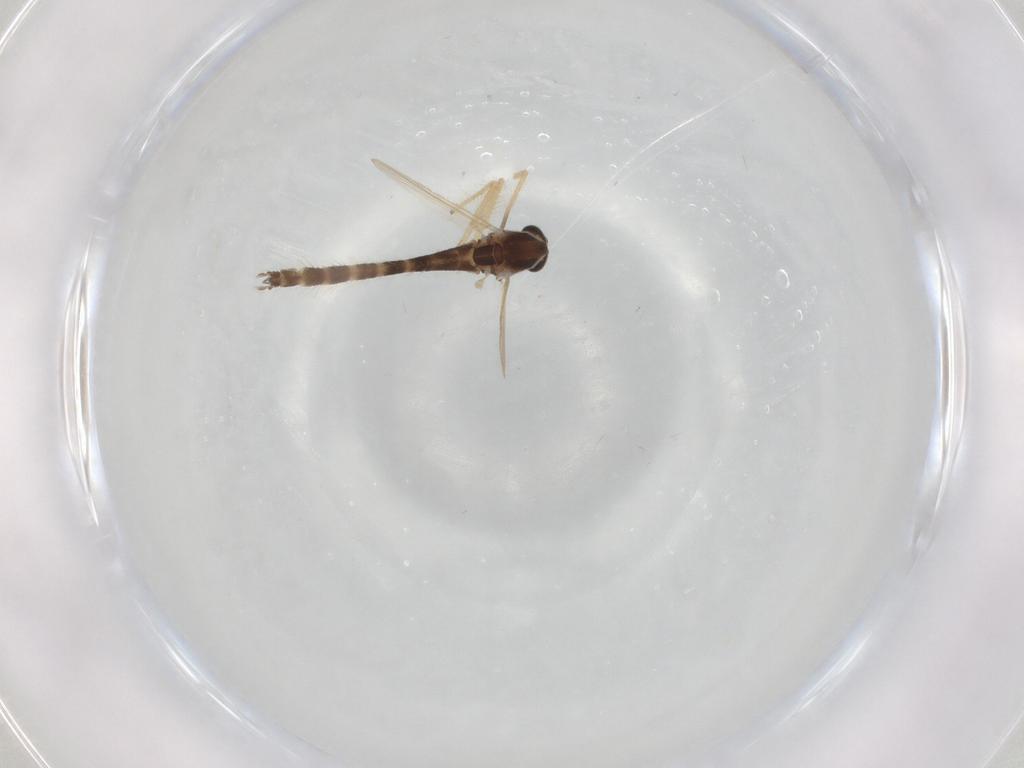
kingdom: Animalia
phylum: Arthropoda
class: Insecta
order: Diptera
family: Chironomidae
